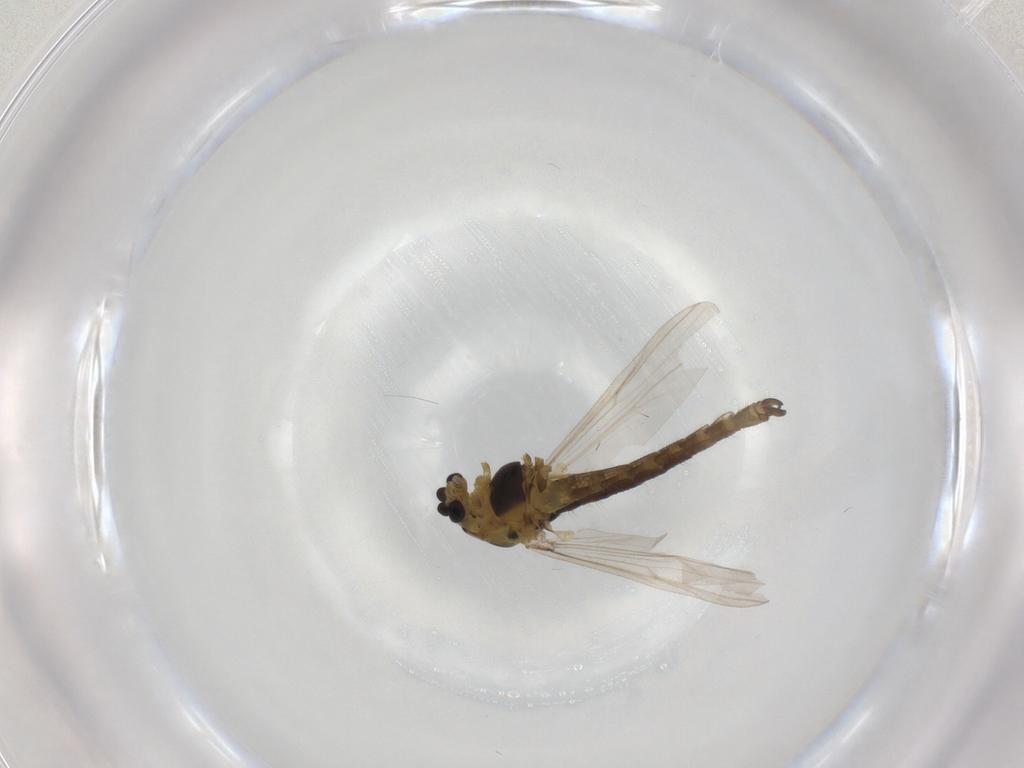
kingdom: Animalia
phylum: Arthropoda
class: Insecta
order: Diptera
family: Chironomidae
